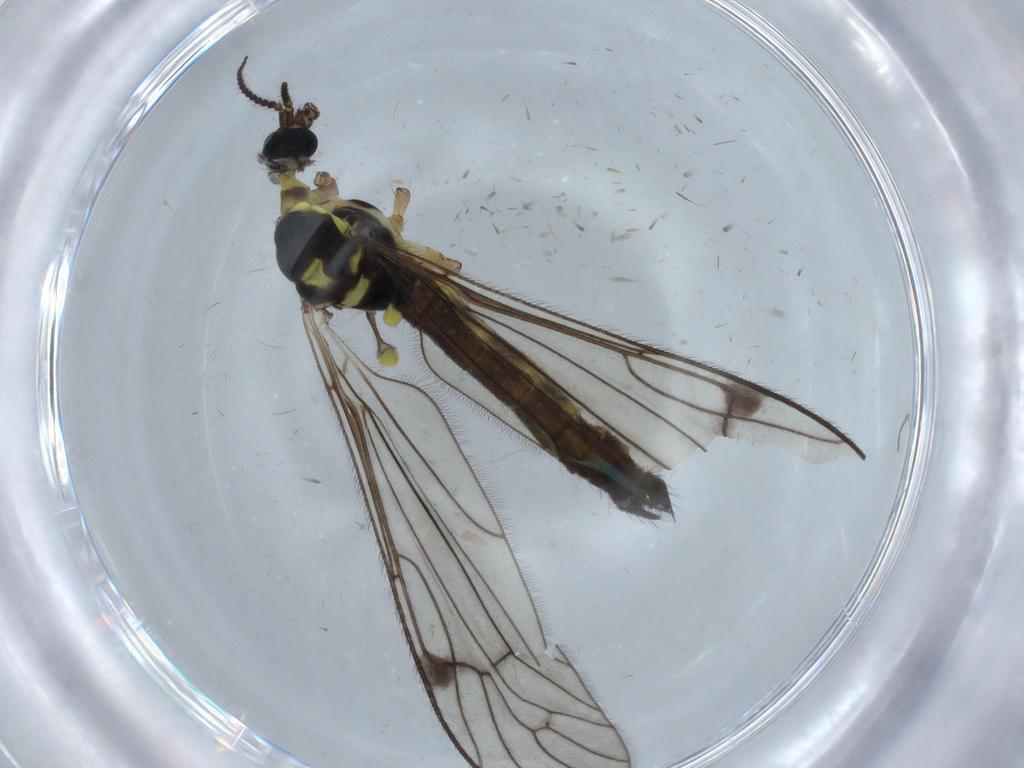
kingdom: Animalia
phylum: Arthropoda
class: Insecta
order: Diptera
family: Limoniidae
